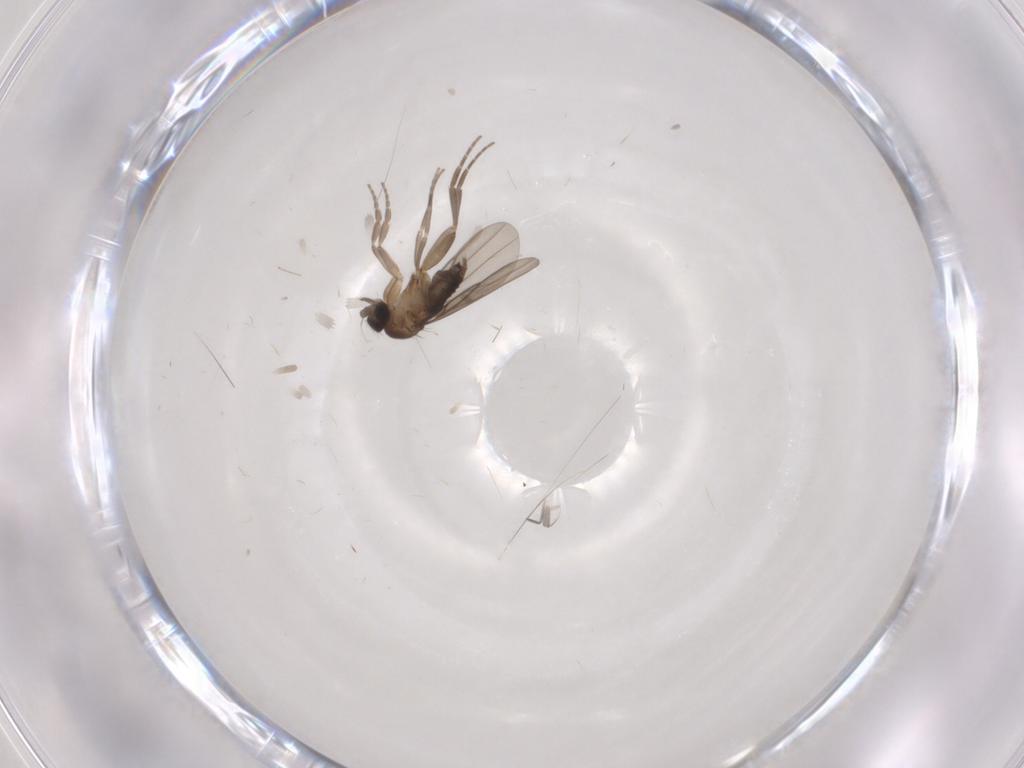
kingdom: Animalia
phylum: Arthropoda
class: Insecta
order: Diptera
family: Cecidomyiidae
